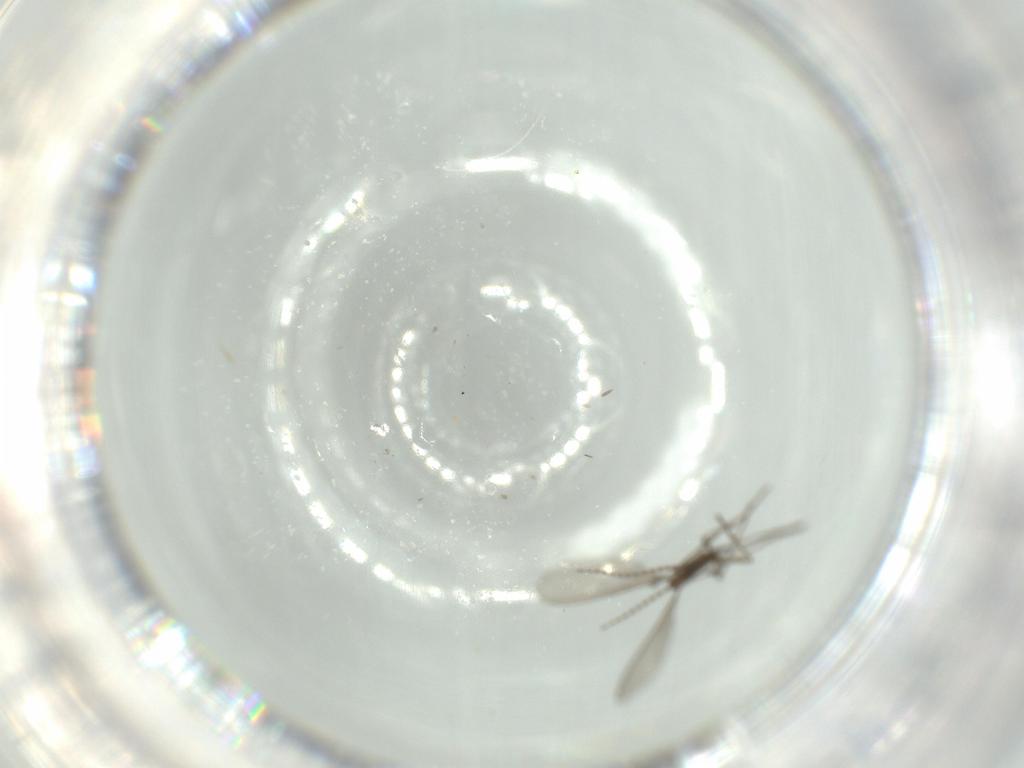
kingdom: Animalia
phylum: Arthropoda
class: Insecta
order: Diptera
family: Sciaridae
